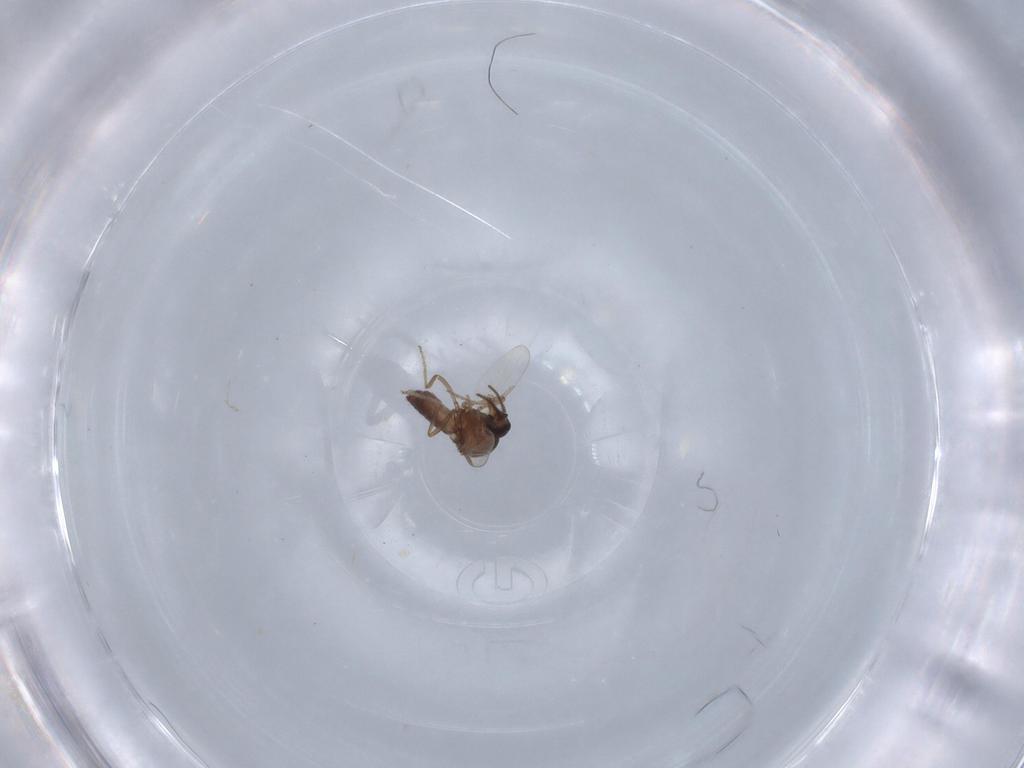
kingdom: Animalia
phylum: Arthropoda
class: Insecta
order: Diptera
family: Ceratopogonidae
